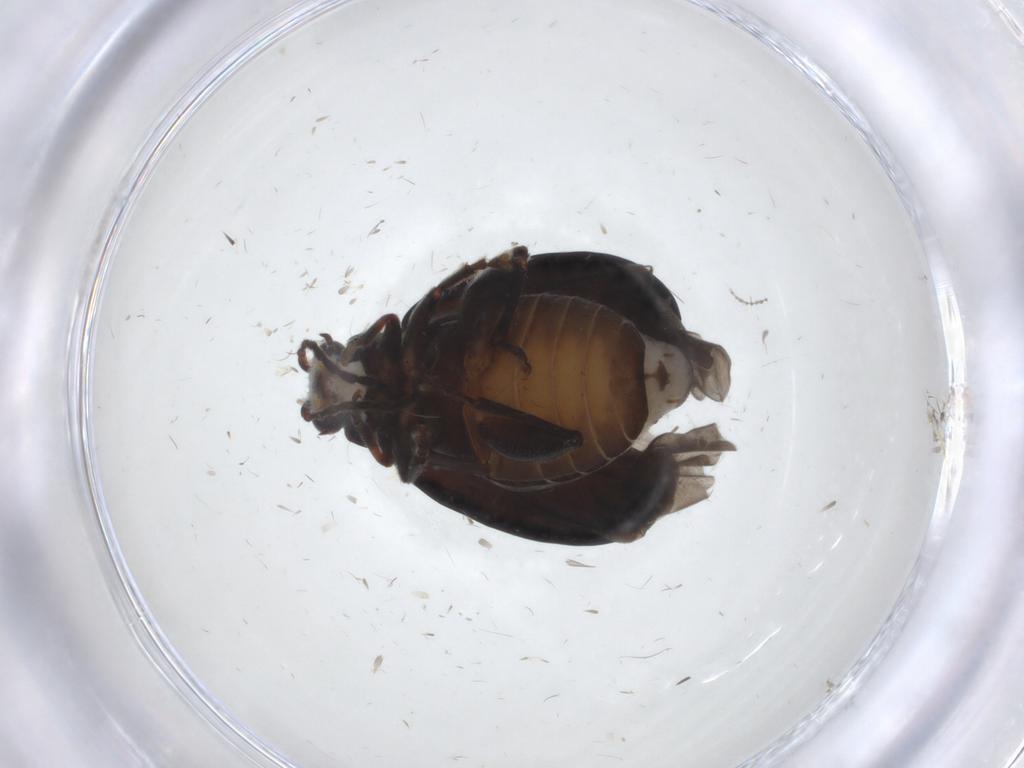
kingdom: Animalia
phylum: Arthropoda
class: Insecta
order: Coleoptera
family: Chrysomelidae
